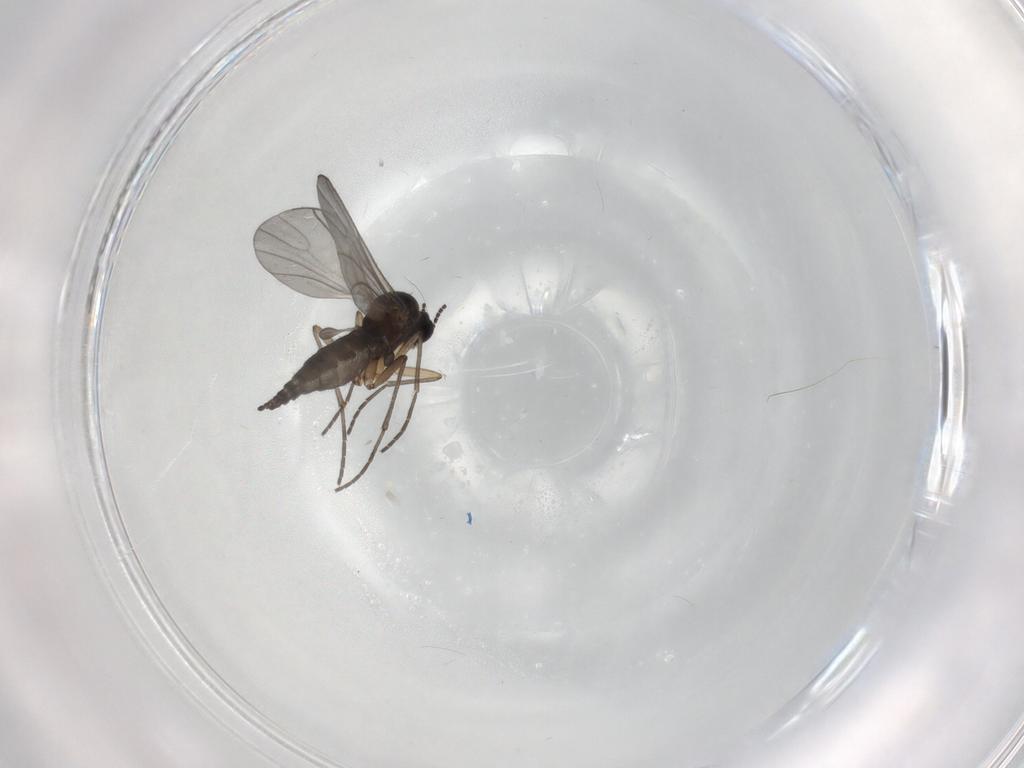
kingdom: Animalia
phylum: Arthropoda
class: Insecta
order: Diptera
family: Sciaridae
